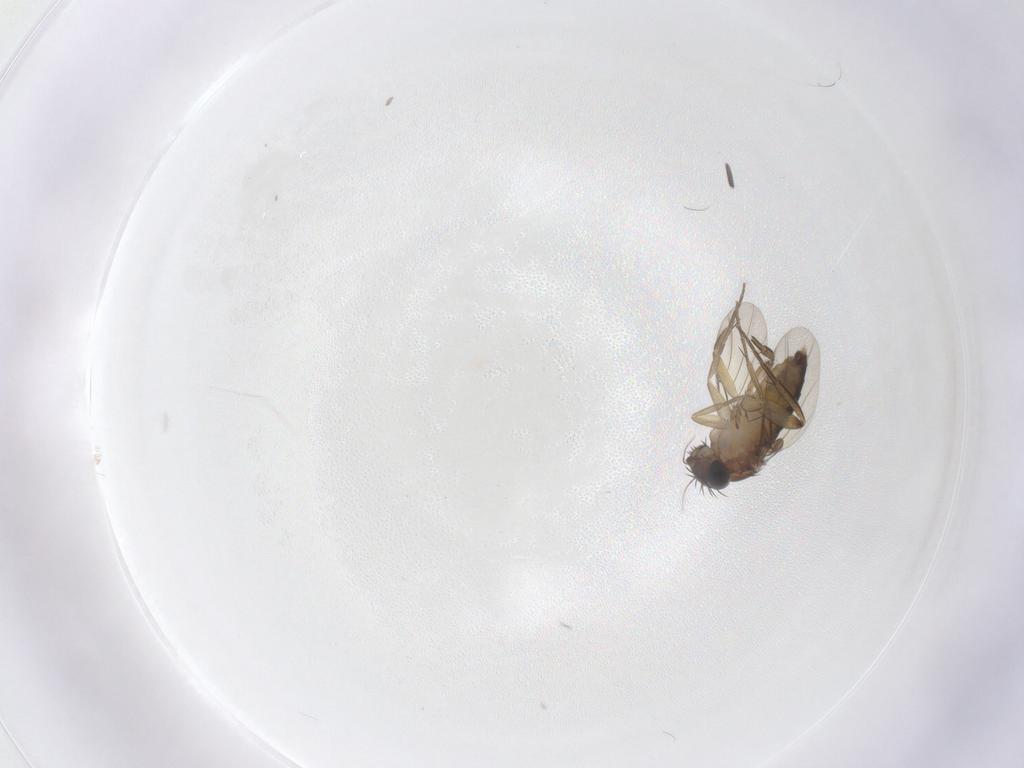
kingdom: Animalia
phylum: Arthropoda
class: Insecta
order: Diptera
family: Phoridae
